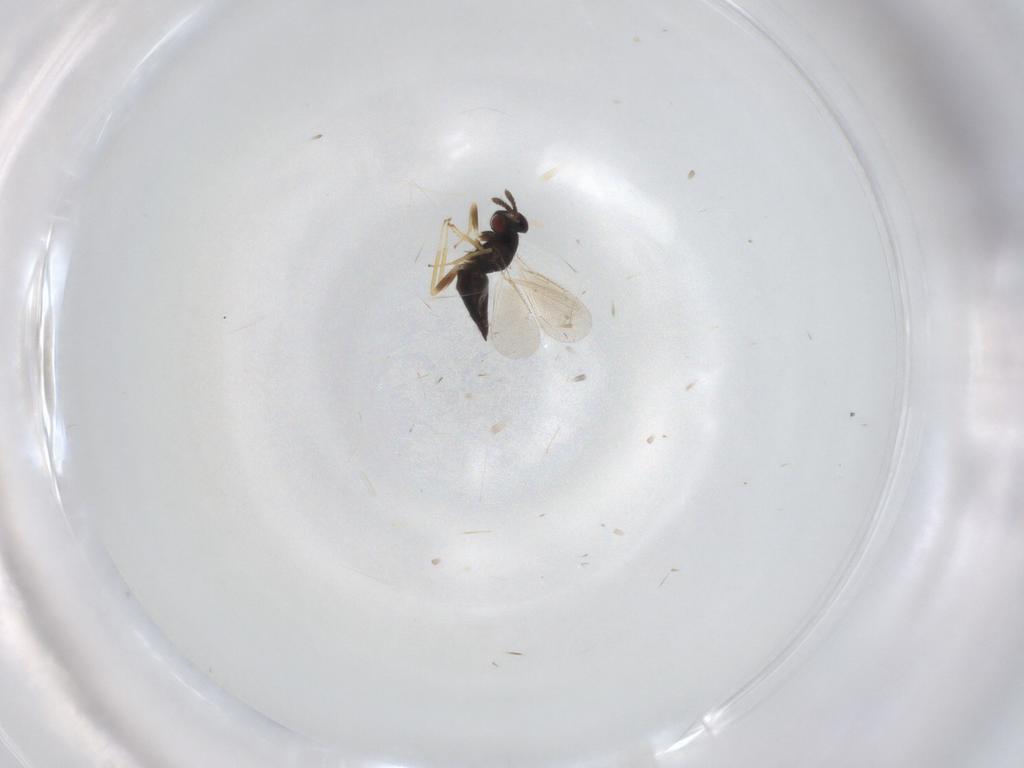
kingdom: Animalia
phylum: Arthropoda
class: Insecta
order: Hymenoptera
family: Eulophidae
